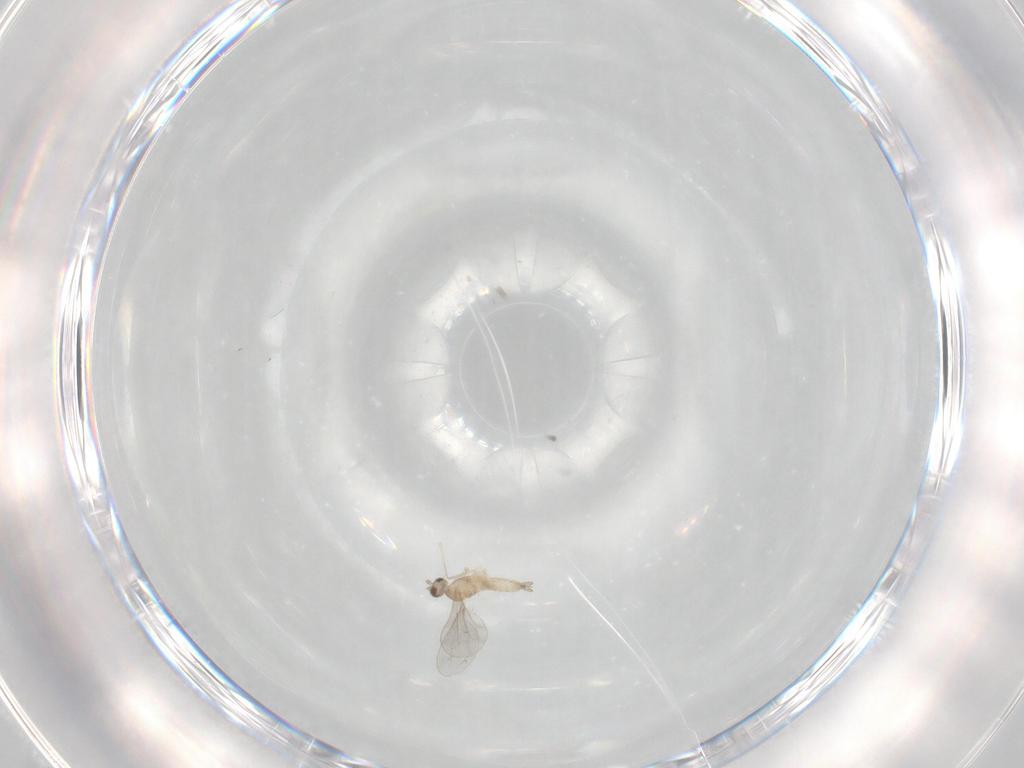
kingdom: Animalia
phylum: Arthropoda
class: Insecta
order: Diptera
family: Phoridae
